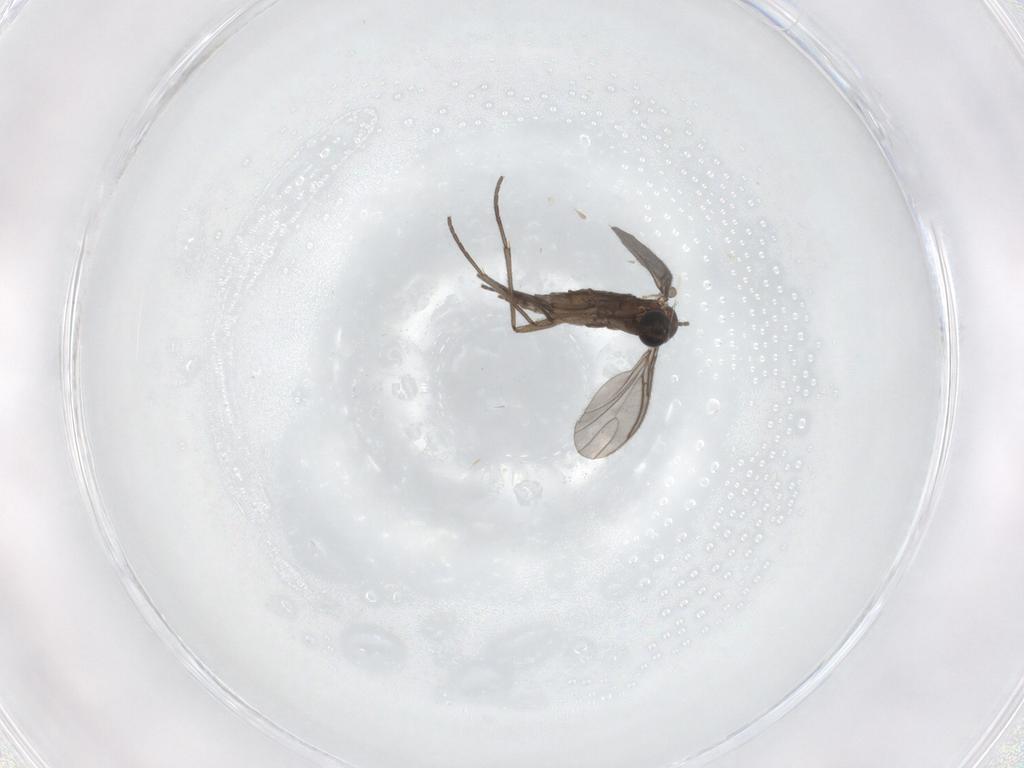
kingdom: Animalia
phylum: Arthropoda
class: Insecta
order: Diptera
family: Sciaridae
